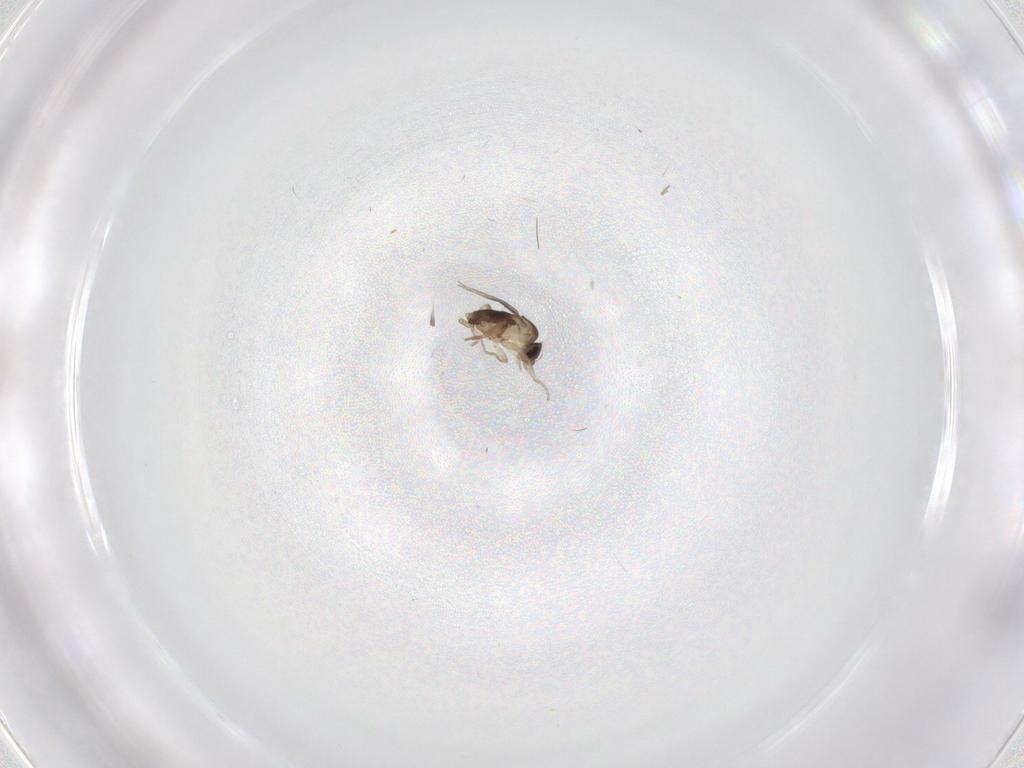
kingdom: Animalia
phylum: Arthropoda
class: Insecta
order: Diptera
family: Phoridae
